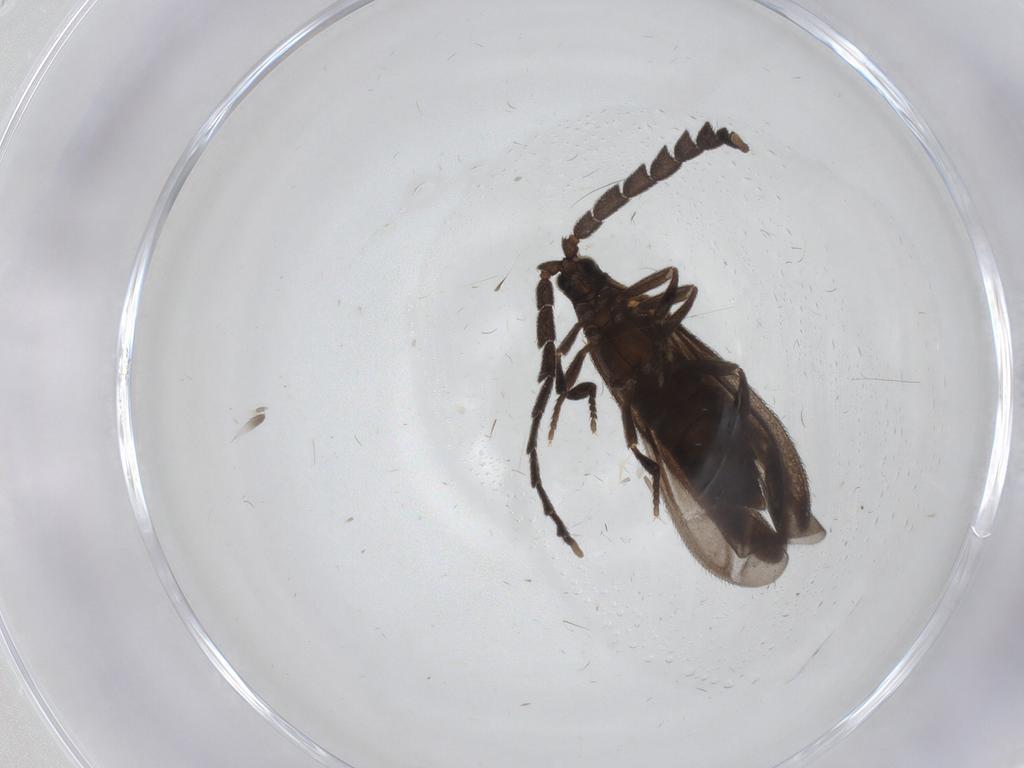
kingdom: Animalia
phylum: Arthropoda
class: Insecta
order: Coleoptera
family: Lycidae
